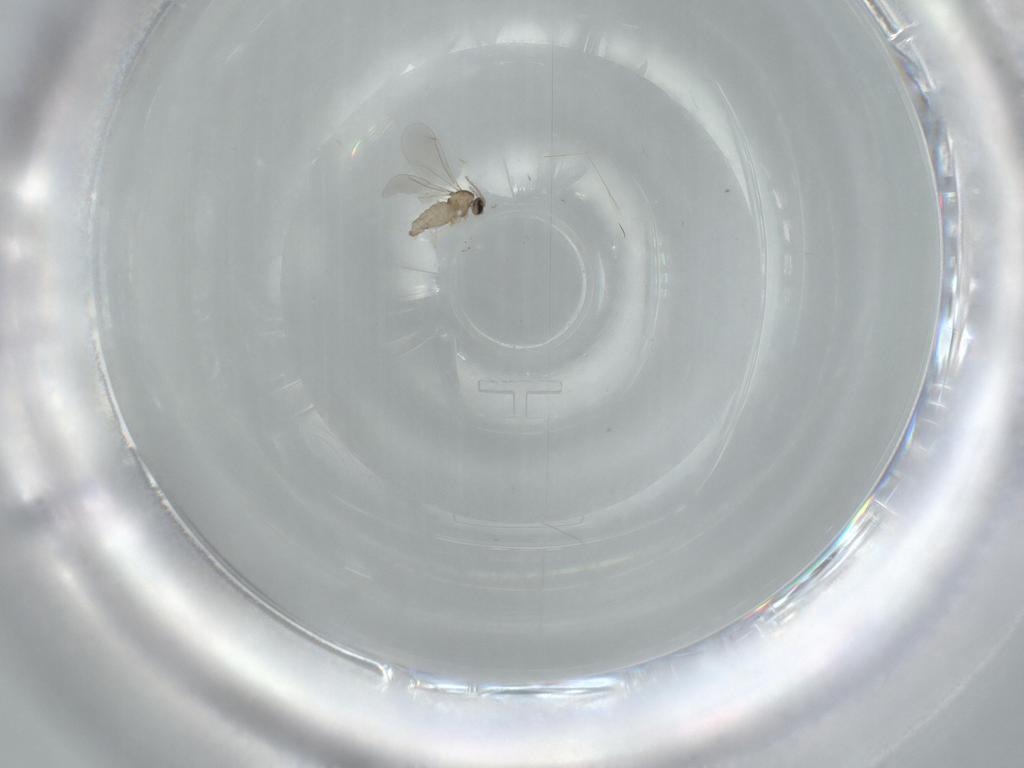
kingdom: Animalia
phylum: Arthropoda
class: Insecta
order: Diptera
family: Cecidomyiidae
